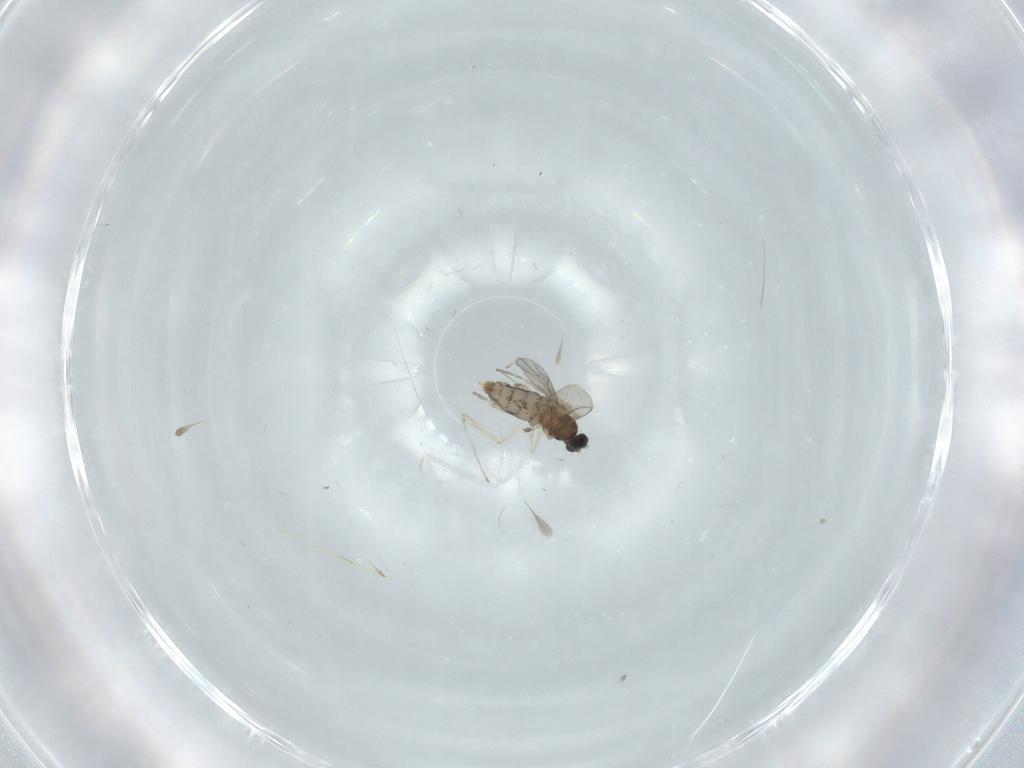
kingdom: Animalia
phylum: Arthropoda
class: Insecta
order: Diptera
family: Cecidomyiidae
